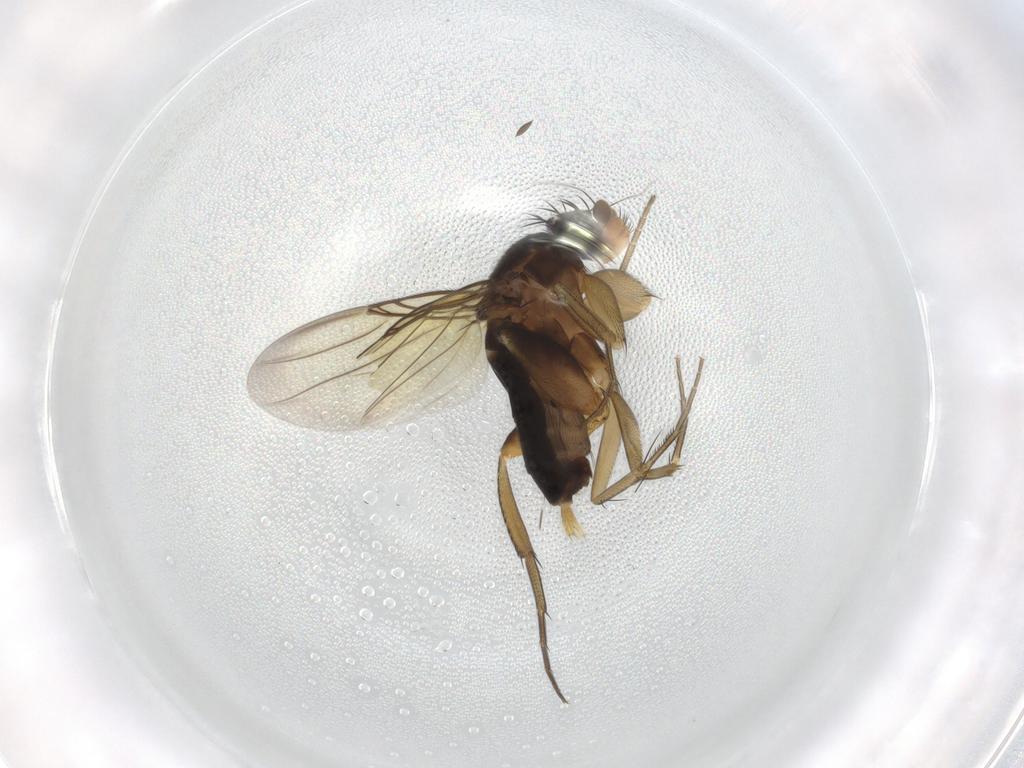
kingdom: Animalia
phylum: Arthropoda
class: Insecta
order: Diptera
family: Phoridae
